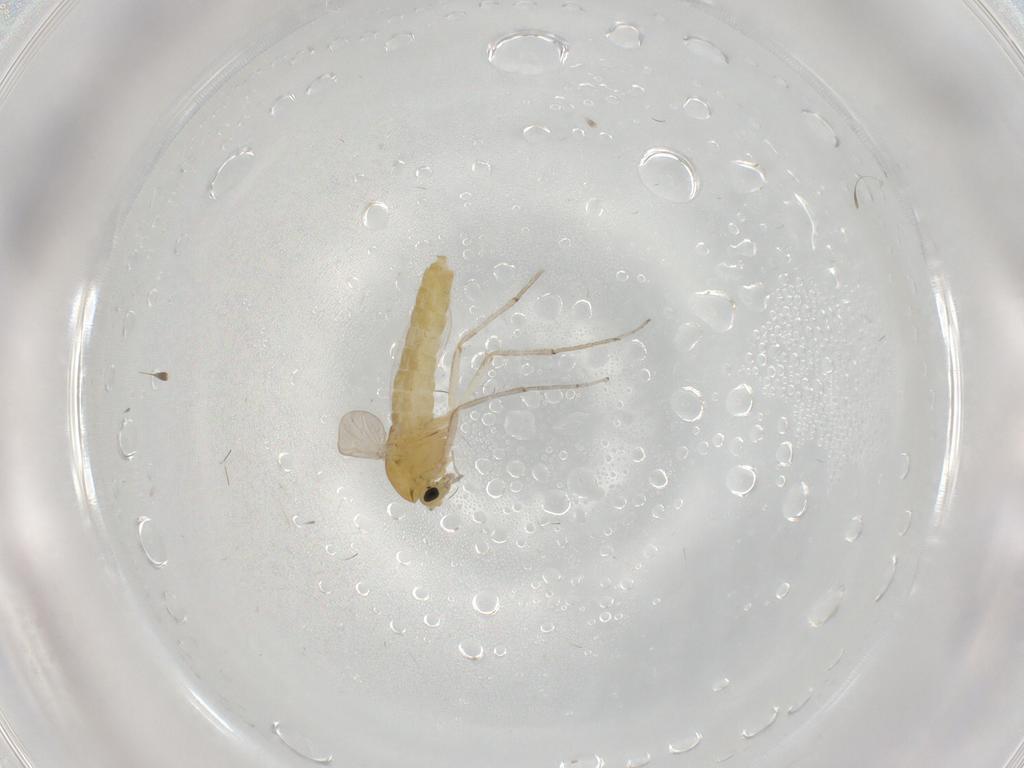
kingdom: Animalia
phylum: Arthropoda
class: Insecta
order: Diptera
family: Chironomidae
